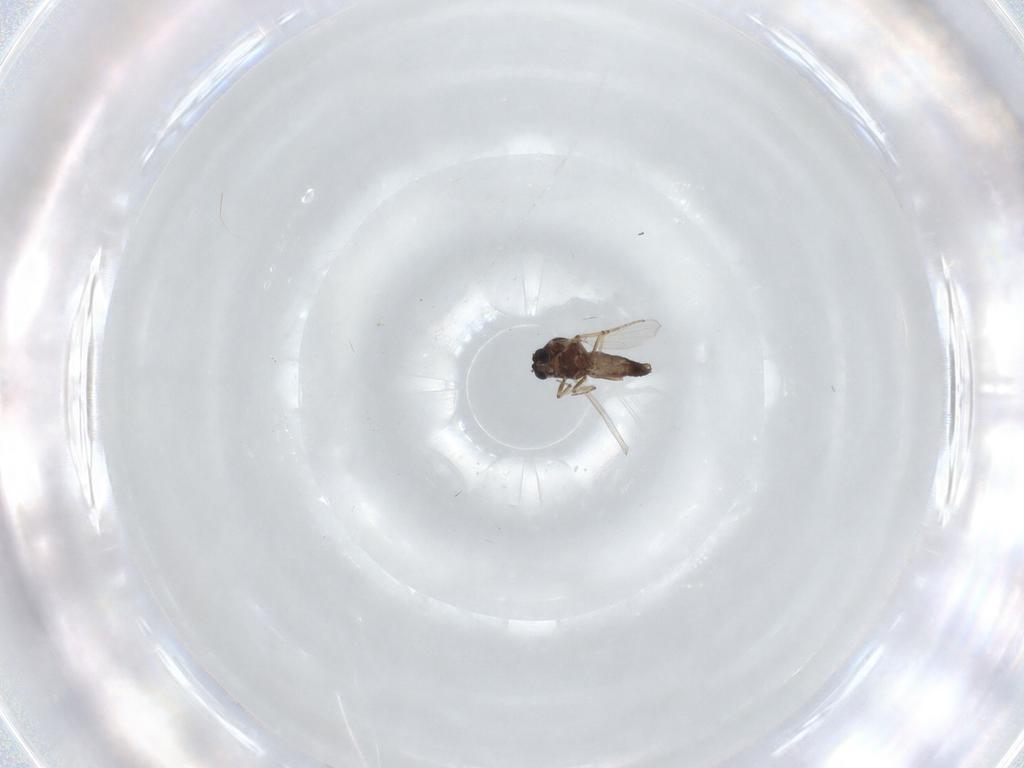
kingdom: Animalia
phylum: Arthropoda
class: Insecta
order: Diptera
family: Ceratopogonidae
